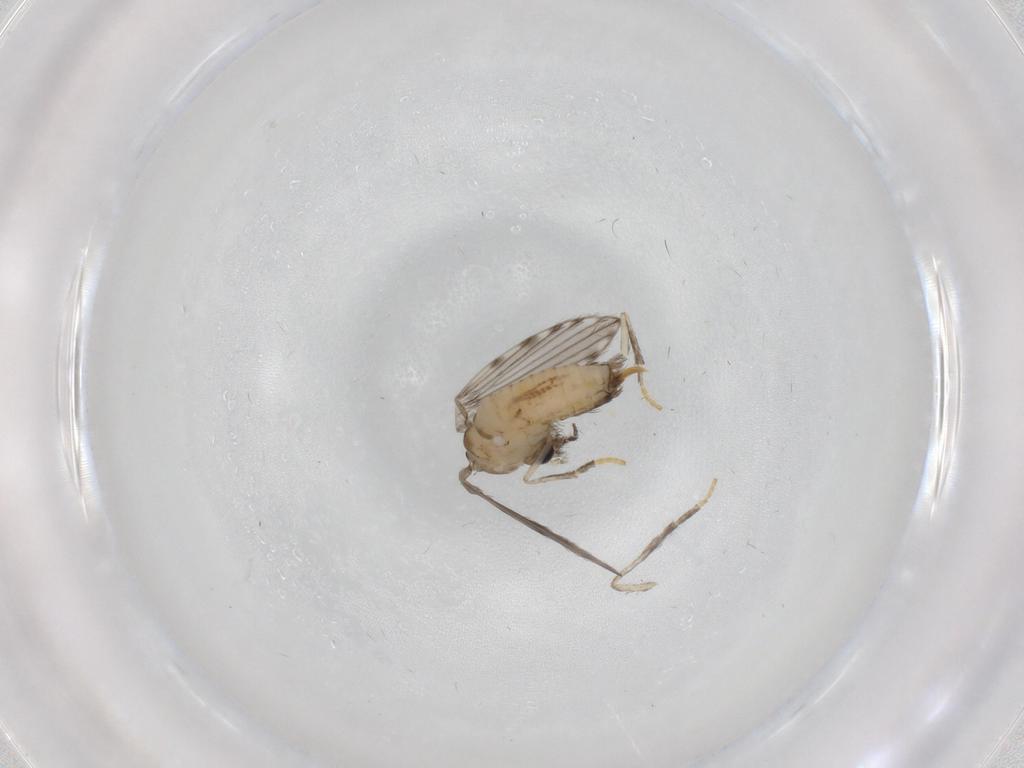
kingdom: Animalia
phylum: Arthropoda
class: Insecta
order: Diptera
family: Psychodidae
